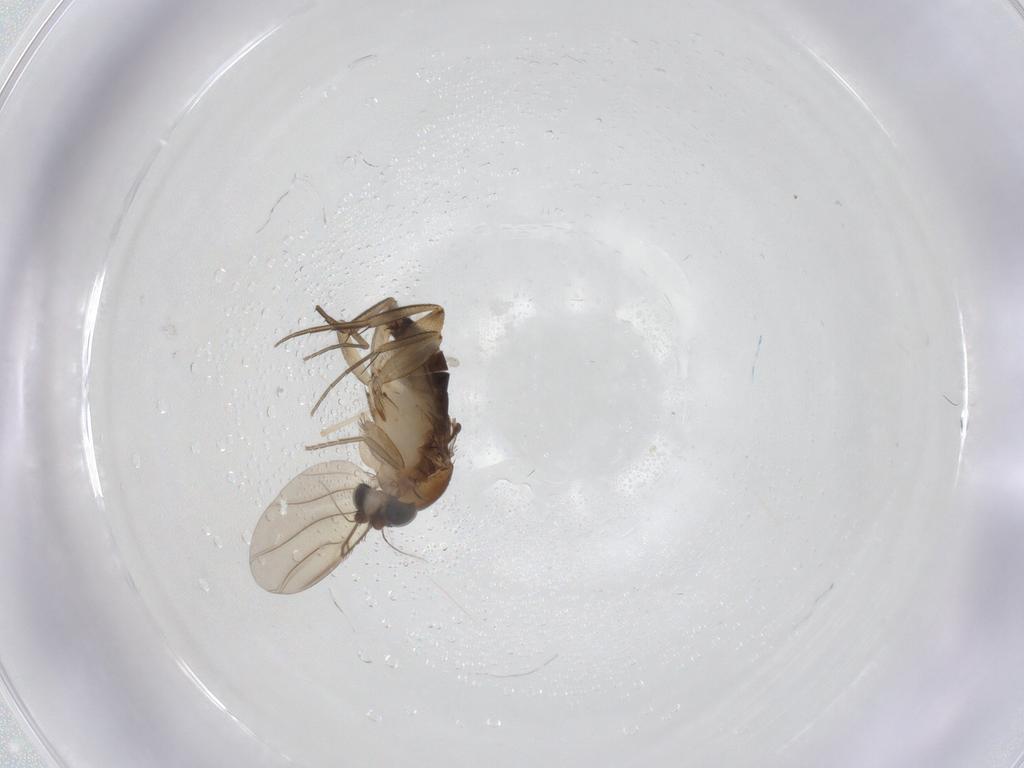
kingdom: Animalia
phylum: Arthropoda
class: Insecta
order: Diptera
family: Phoridae
